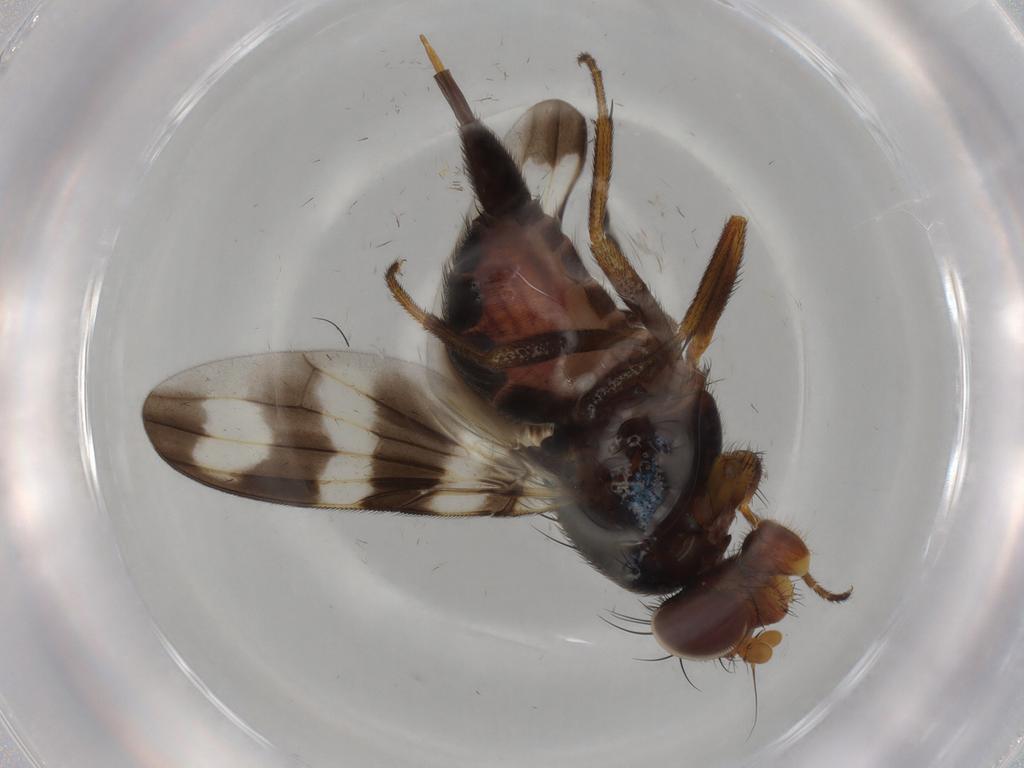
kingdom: Animalia
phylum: Arthropoda
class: Insecta
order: Diptera
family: Ulidiidae
